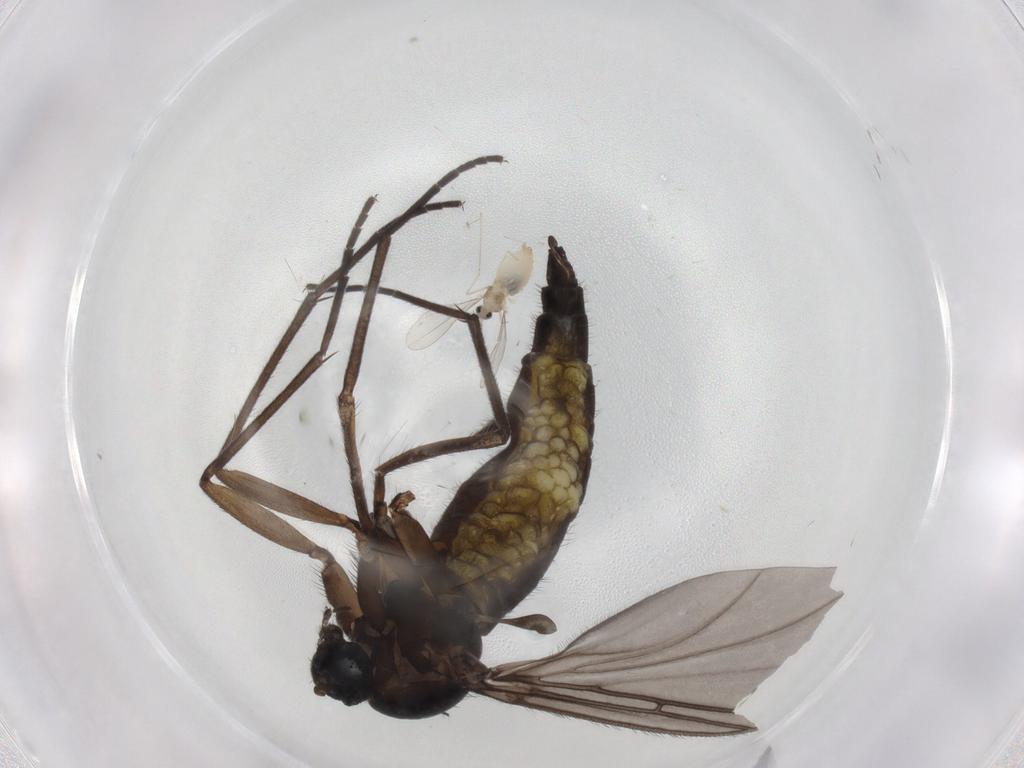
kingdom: Animalia
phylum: Arthropoda
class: Insecta
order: Diptera
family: Sciaridae
